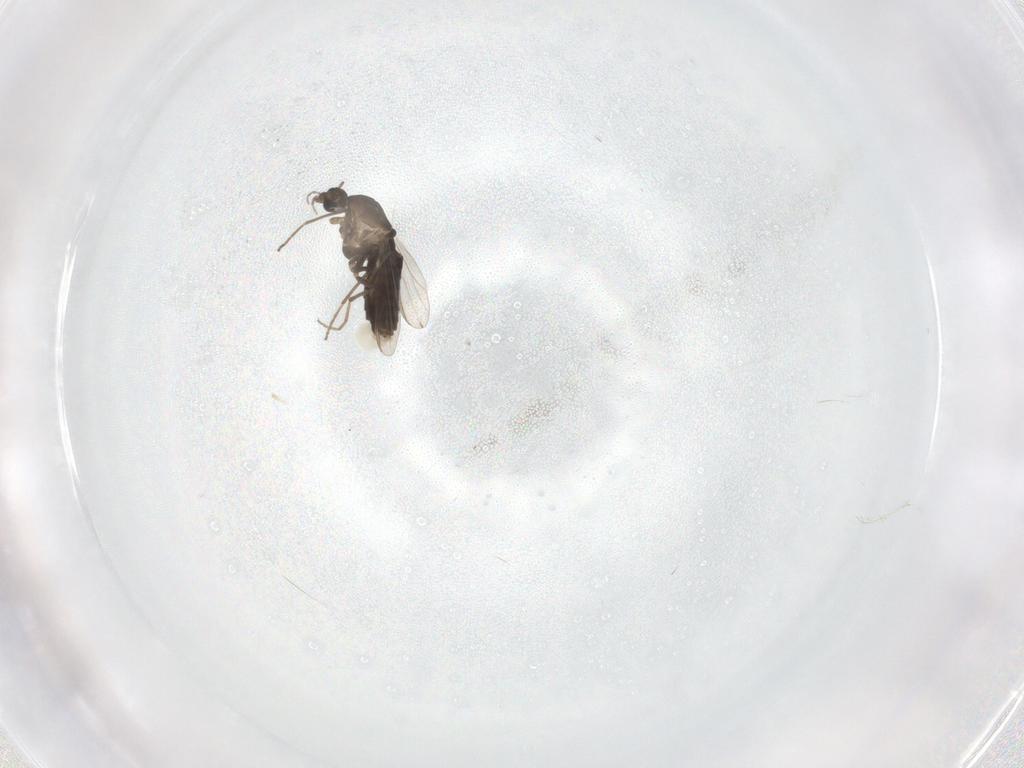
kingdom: Animalia
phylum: Arthropoda
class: Insecta
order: Diptera
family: Chironomidae
